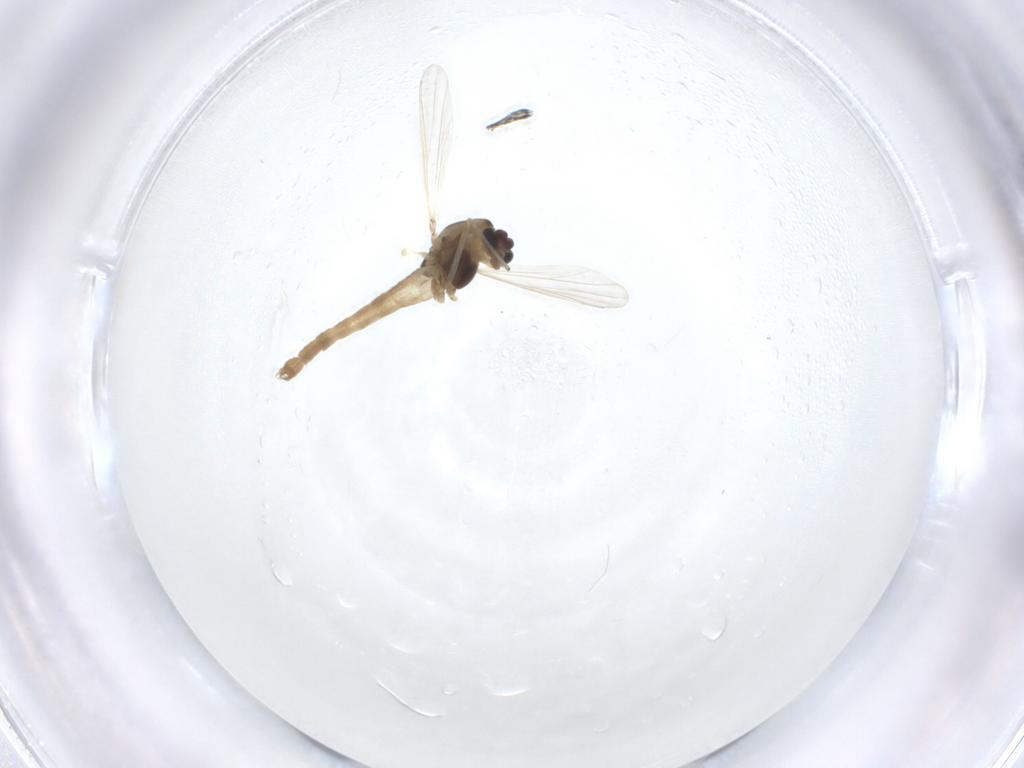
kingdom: Animalia
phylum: Arthropoda
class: Insecta
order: Diptera
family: Chironomidae
